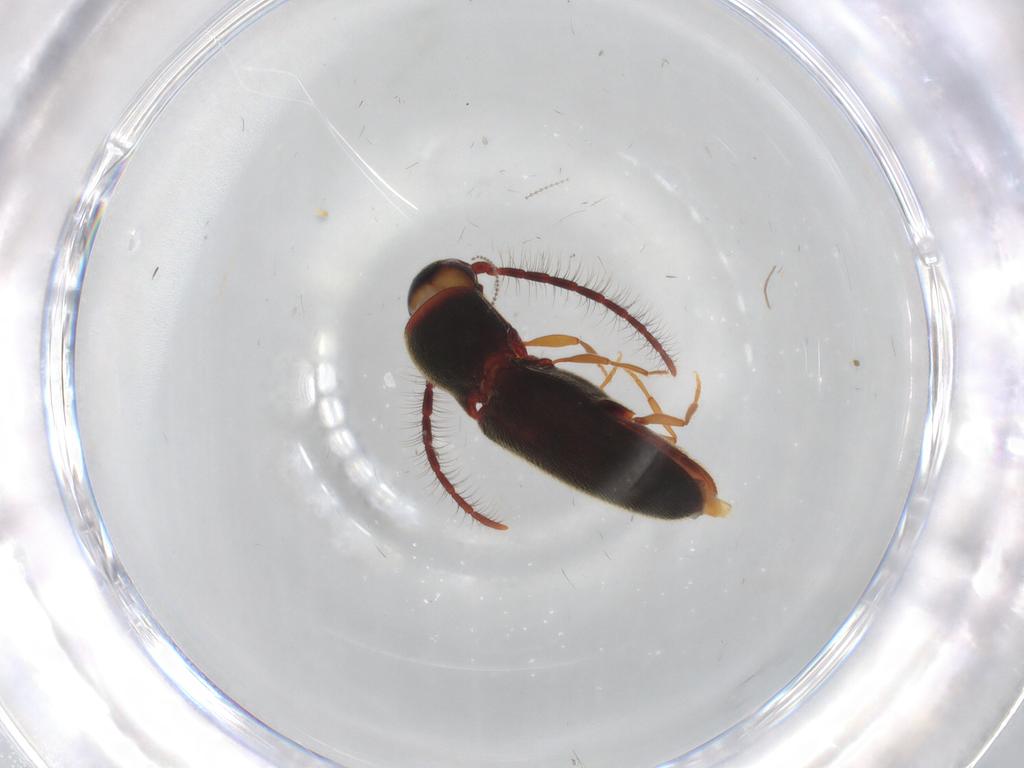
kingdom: Animalia
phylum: Arthropoda
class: Insecta
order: Coleoptera
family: Eucnemidae
